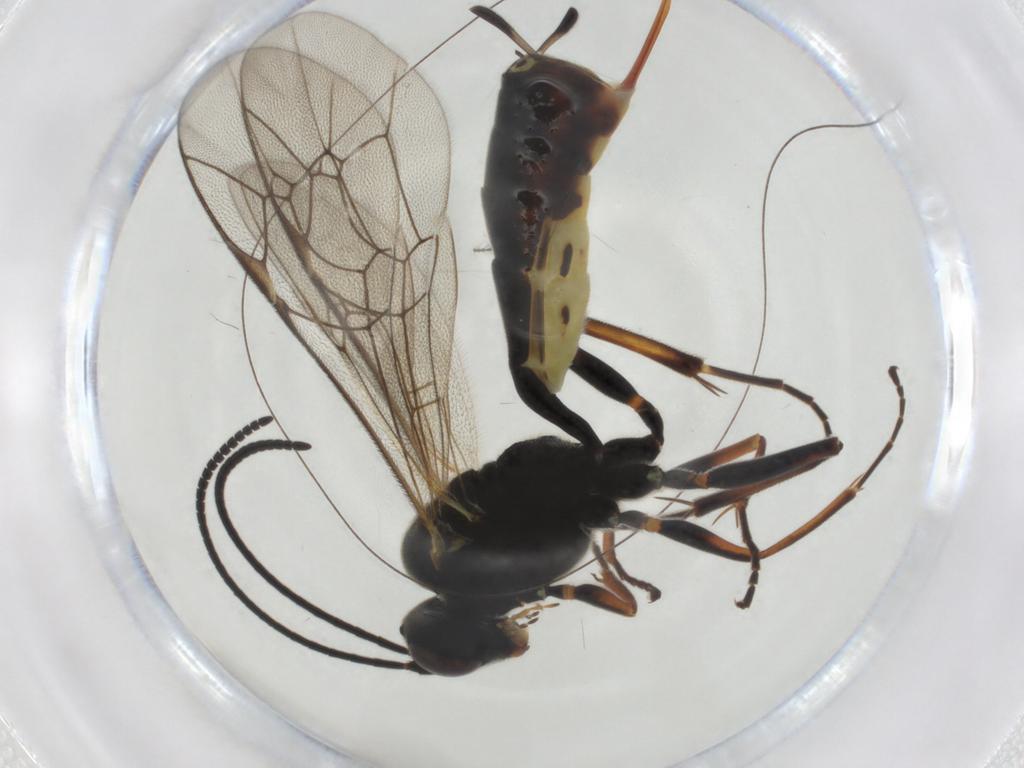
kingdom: Animalia
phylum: Arthropoda
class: Insecta
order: Hymenoptera
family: Ichneumonidae
